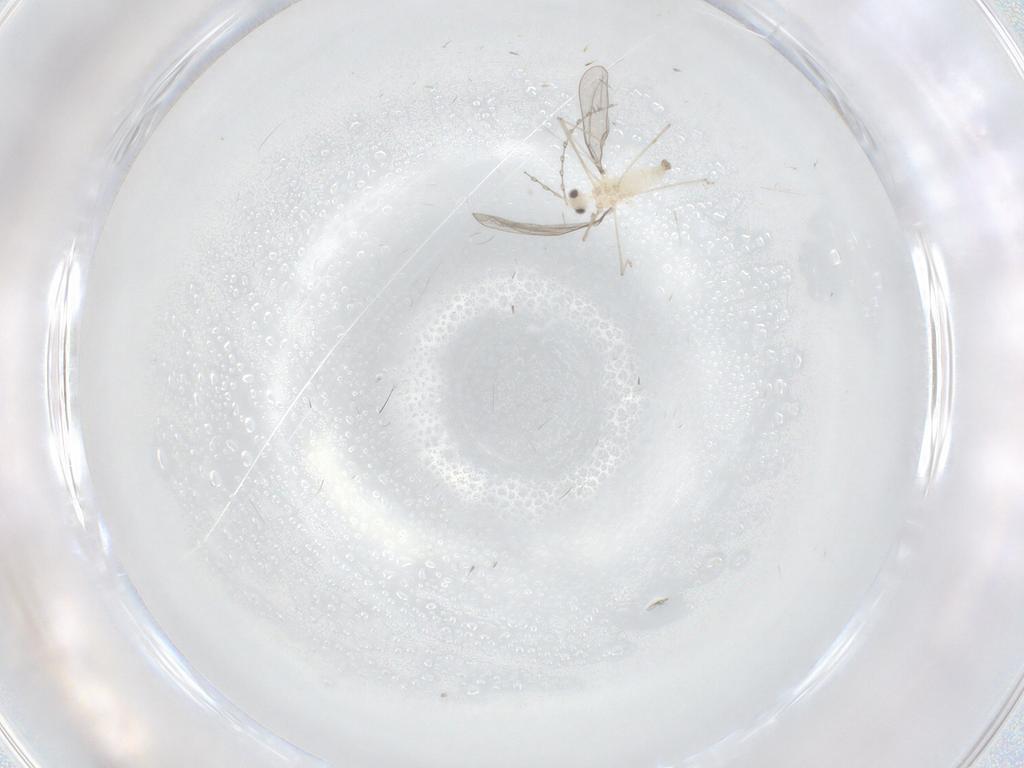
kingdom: Animalia
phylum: Arthropoda
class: Insecta
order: Diptera
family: Cecidomyiidae
